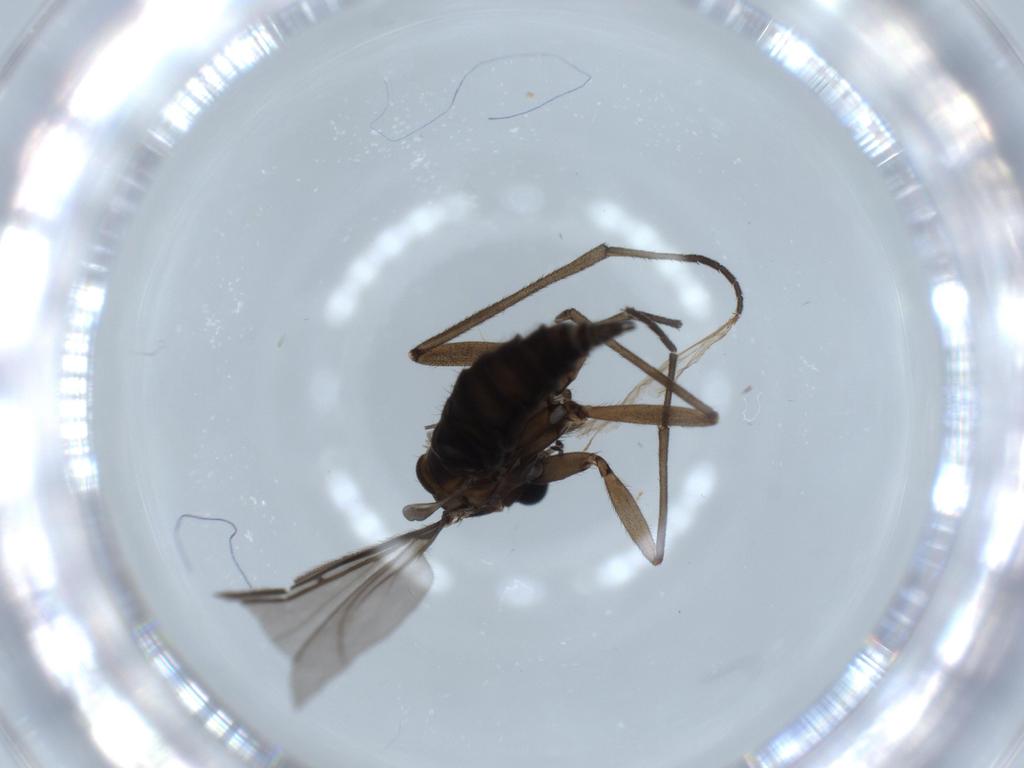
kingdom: Animalia
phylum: Arthropoda
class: Insecta
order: Diptera
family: Sciaridae
